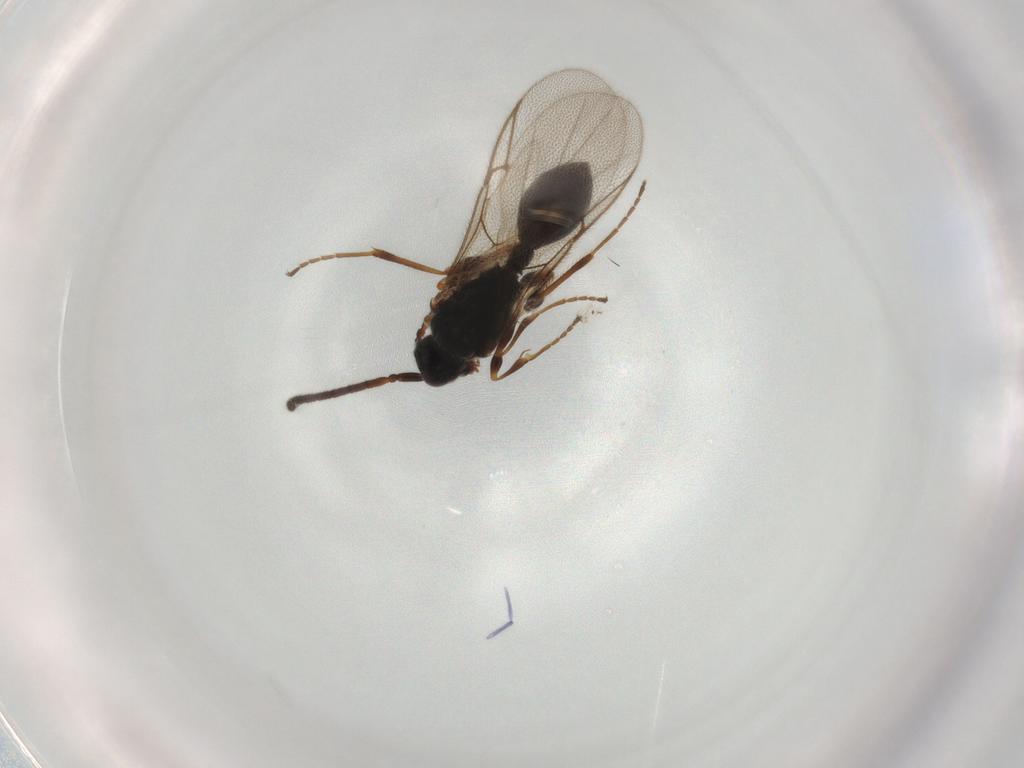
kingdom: Animalia
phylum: Arthropoda
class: Insecta
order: Hymenoptera
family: Diapriidae
